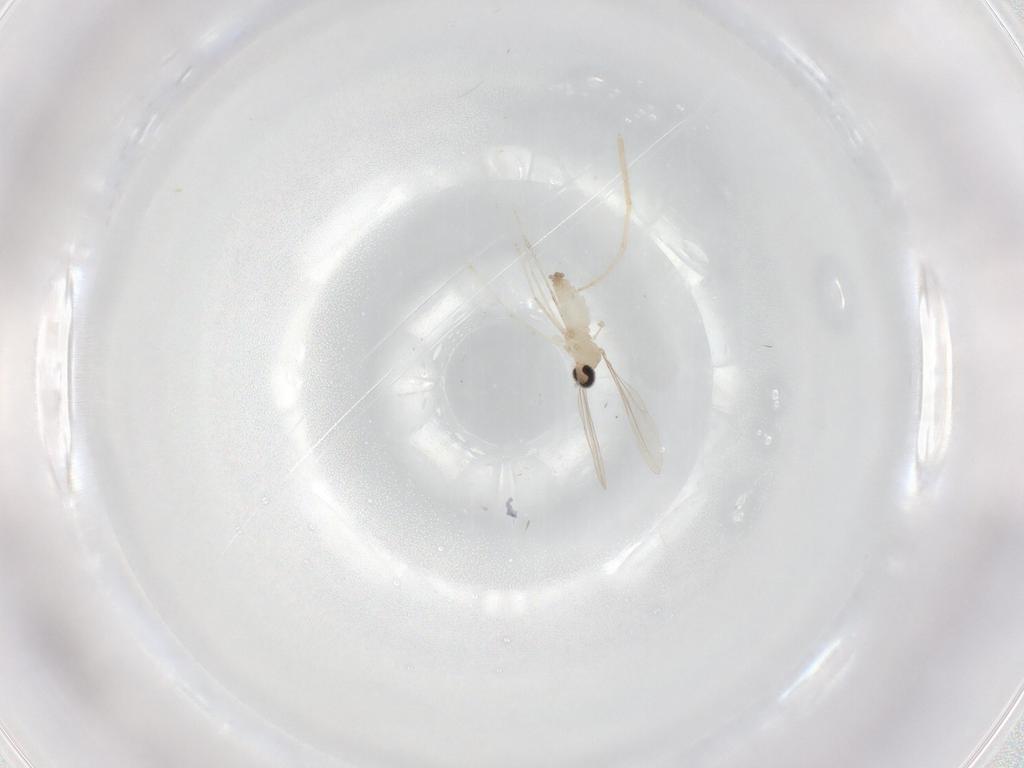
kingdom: Animalia
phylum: Arthropoda
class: Insecta
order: Diptera
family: Chironomidae
